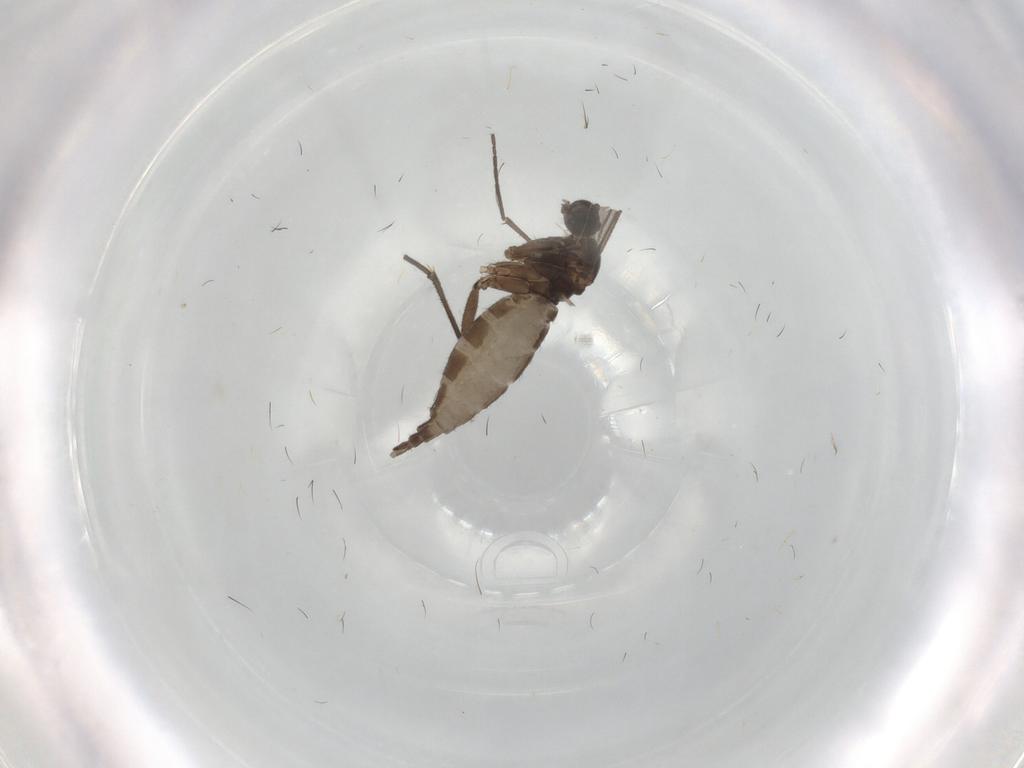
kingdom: Animalia
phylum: Arthropoda
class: Insecta
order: Diptera
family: Sciaridae
